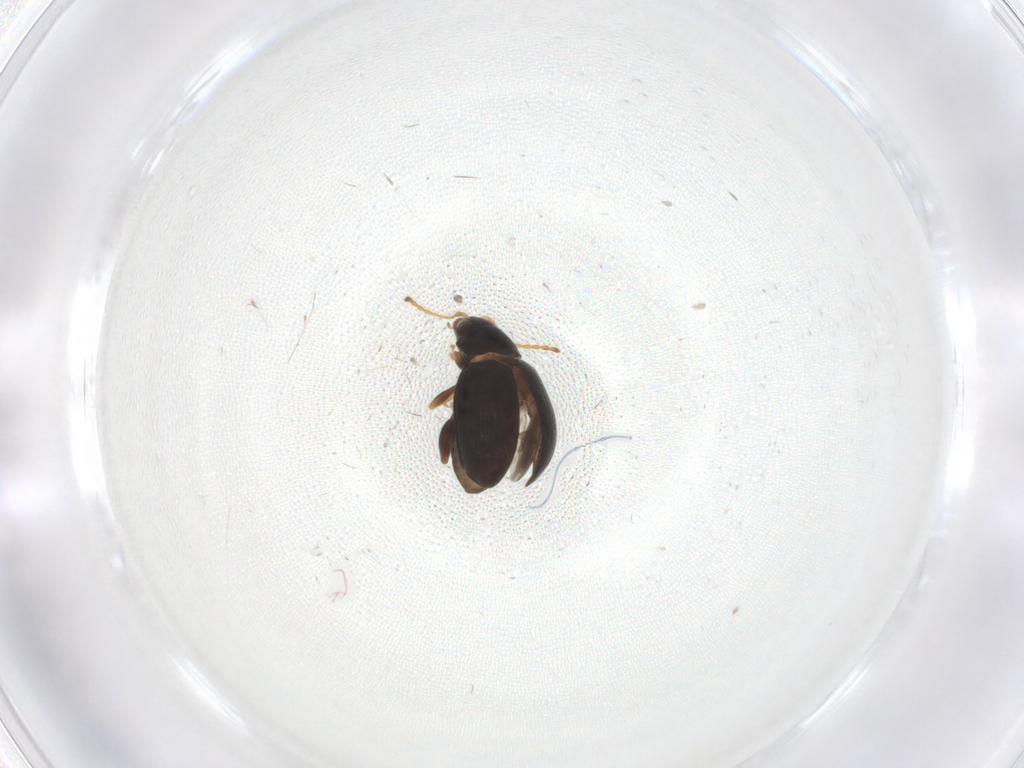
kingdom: Animalia
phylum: Arthropoda
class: Insecta
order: Coleoptera
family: Chrysomelidae
